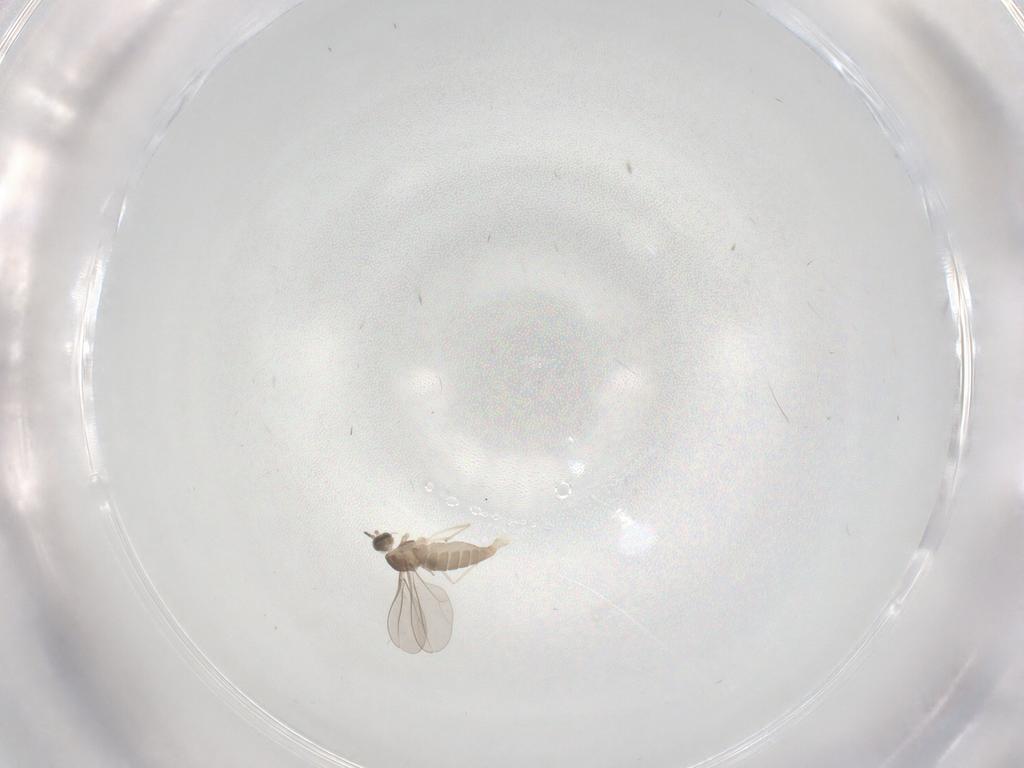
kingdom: Animalia
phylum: Arthropoda
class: Insecta
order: Diptera
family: Cecidomyiidae
